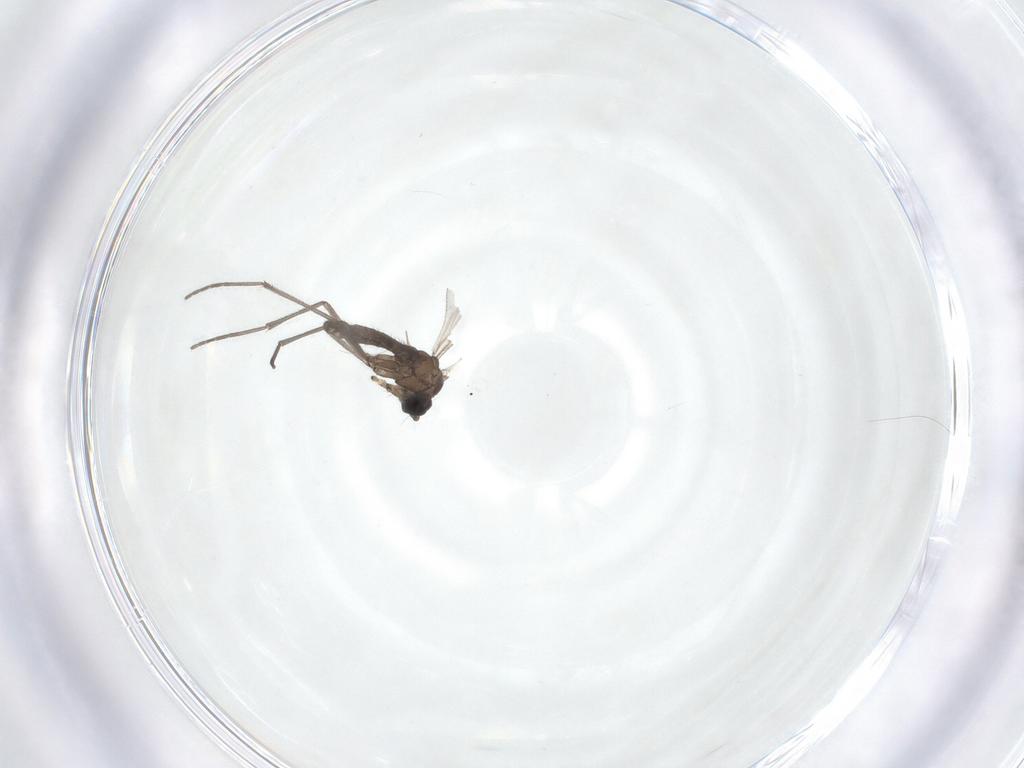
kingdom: Animalia
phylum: Arthropoda
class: Insecta
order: Diptera
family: Sciaridae
